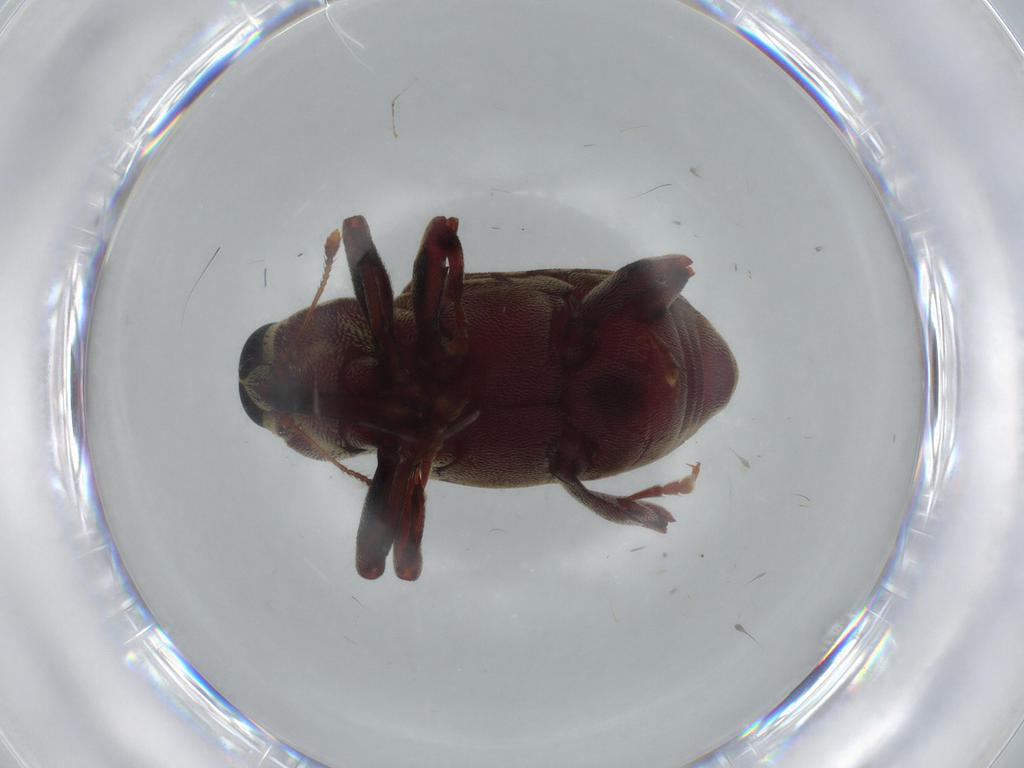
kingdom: Animalia
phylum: Arthropoda
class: Insecta
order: Coleoptera
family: Curculionidae
